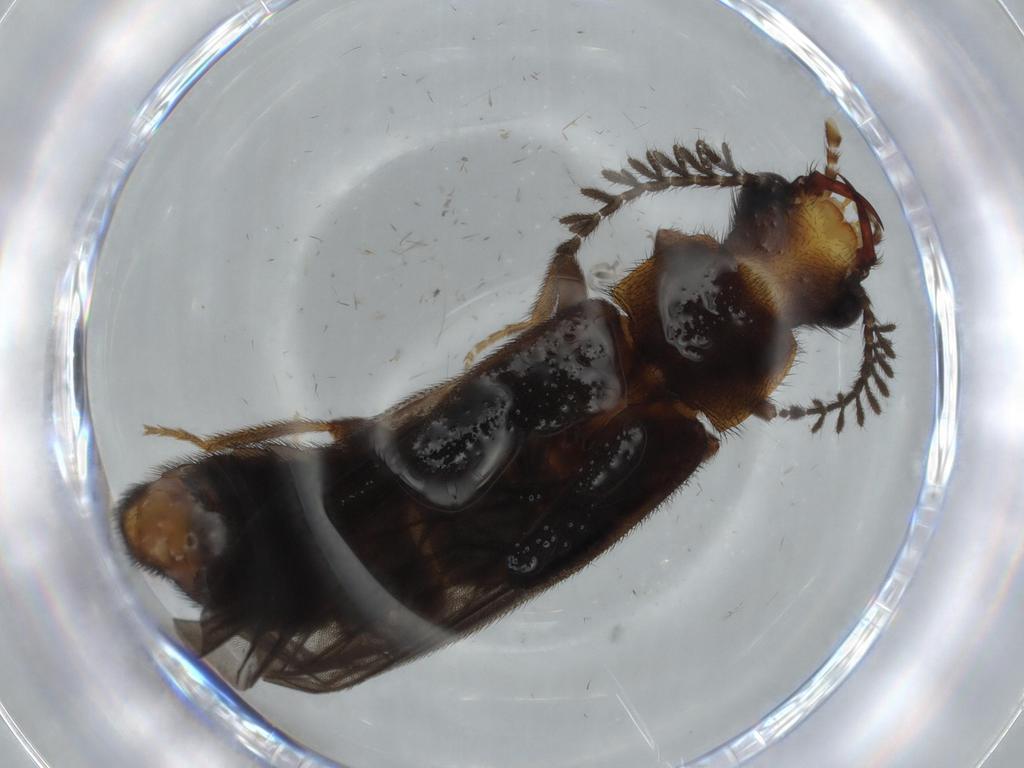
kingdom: Animalia
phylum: Arthropoda
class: Insecta
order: Coleoptera
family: Phengodidae
